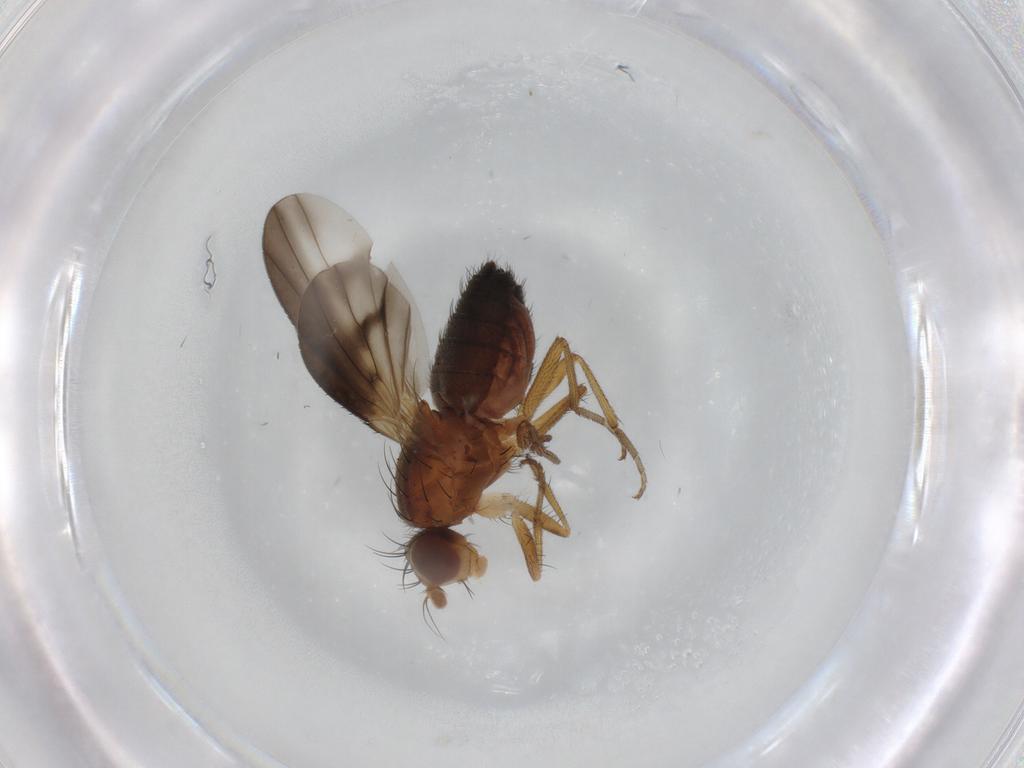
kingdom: Animalia
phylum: Arthropoda
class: Insecta
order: Diptera
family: Heleomyzidae
